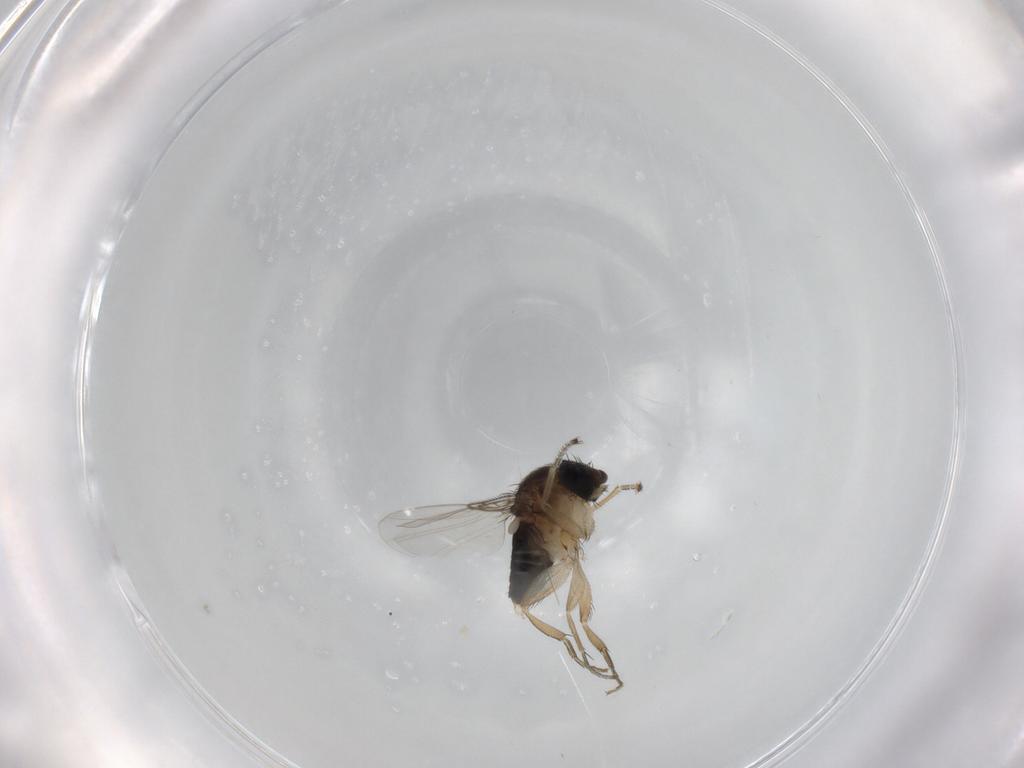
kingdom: Animalia
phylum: Arthropoda
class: Insecta
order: Diptera
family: Phoridae
